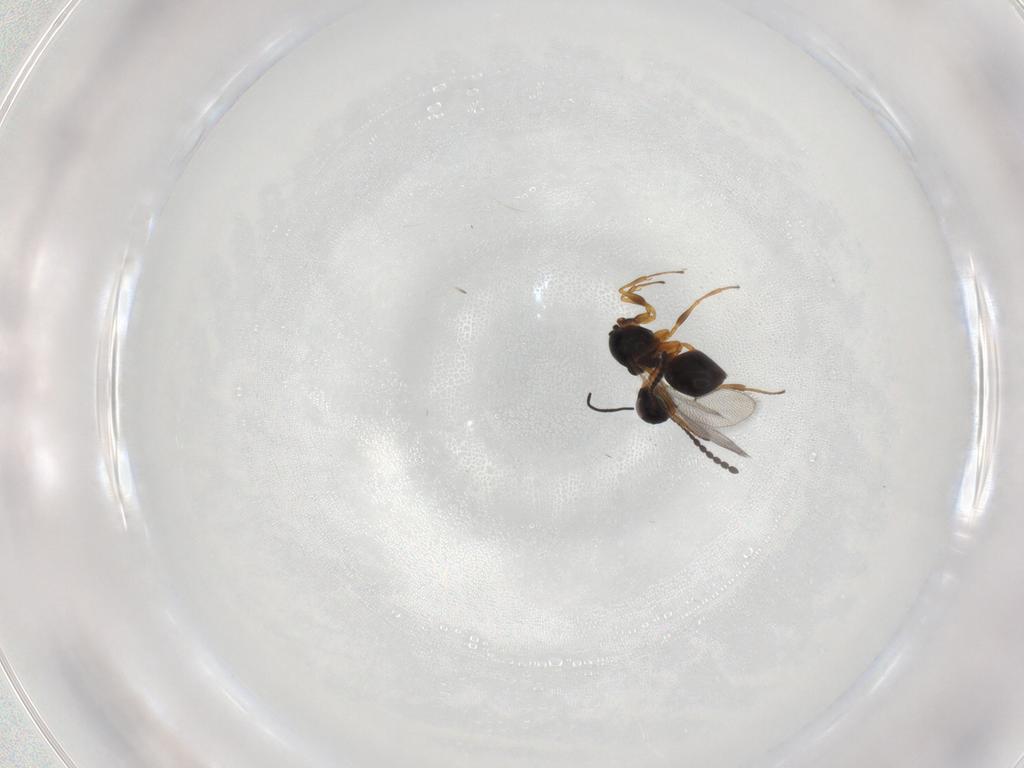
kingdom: Animalia
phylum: Arthropoda
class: Insecta
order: Hymenoptera
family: Figitidae
